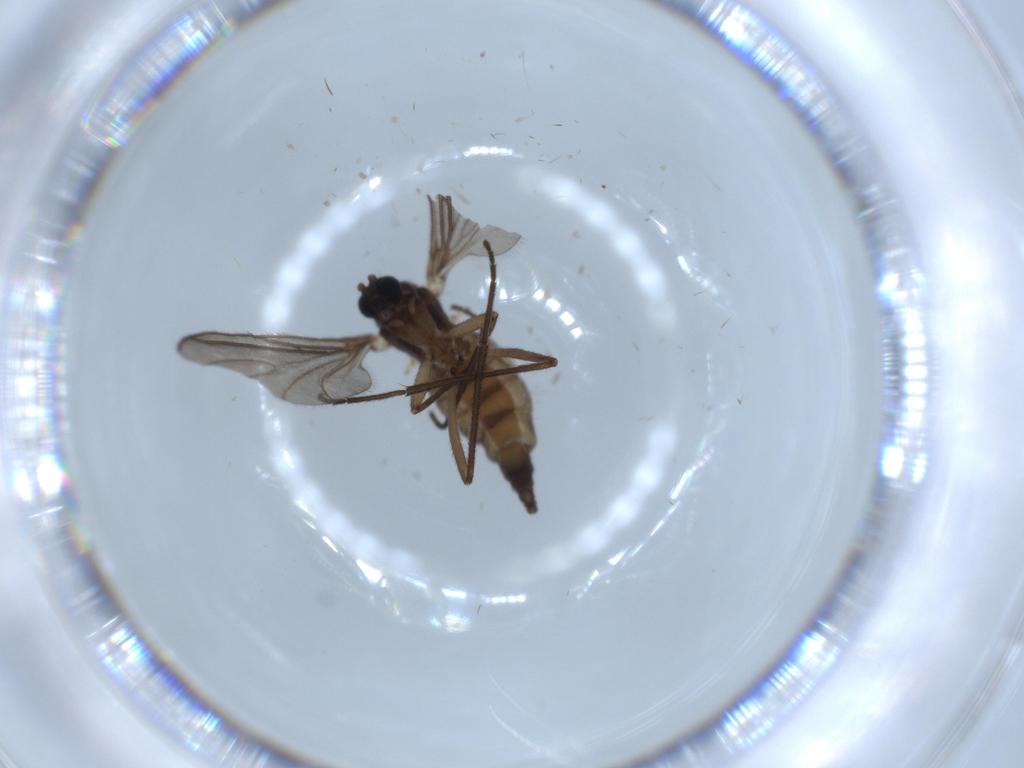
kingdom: Animalia
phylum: Arthropoda
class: Insecta
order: Diptera
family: Sciaridae
